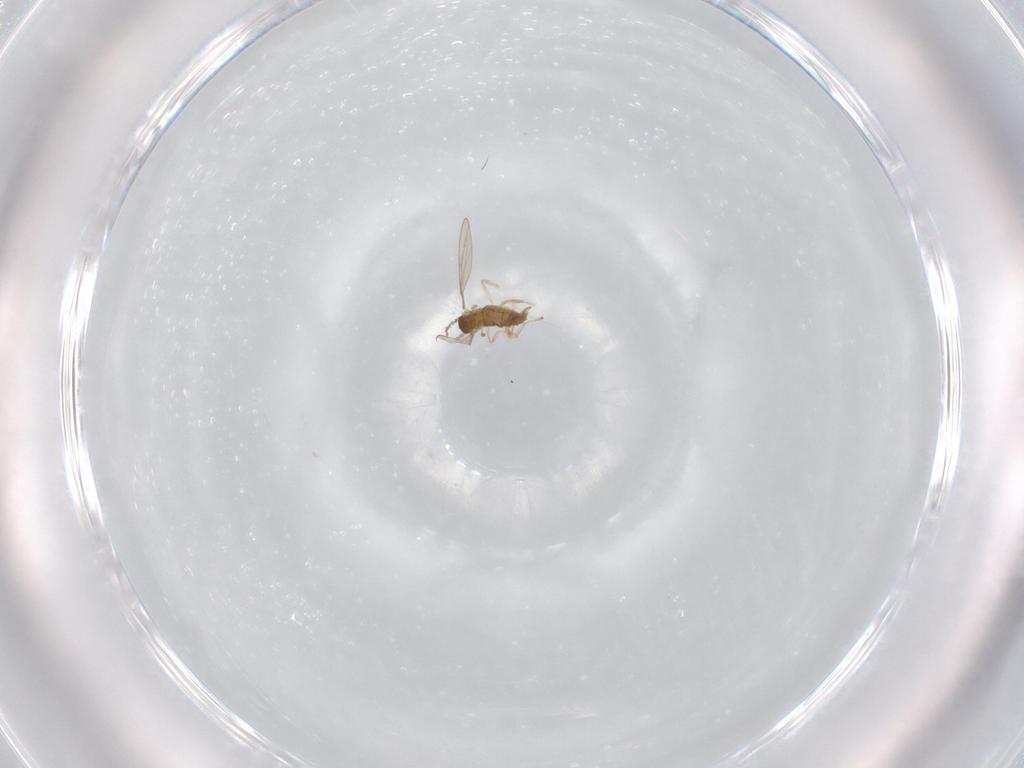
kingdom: Animalia
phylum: Arthropoda
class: Insecta
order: Diptera
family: Cecidomyiidae
